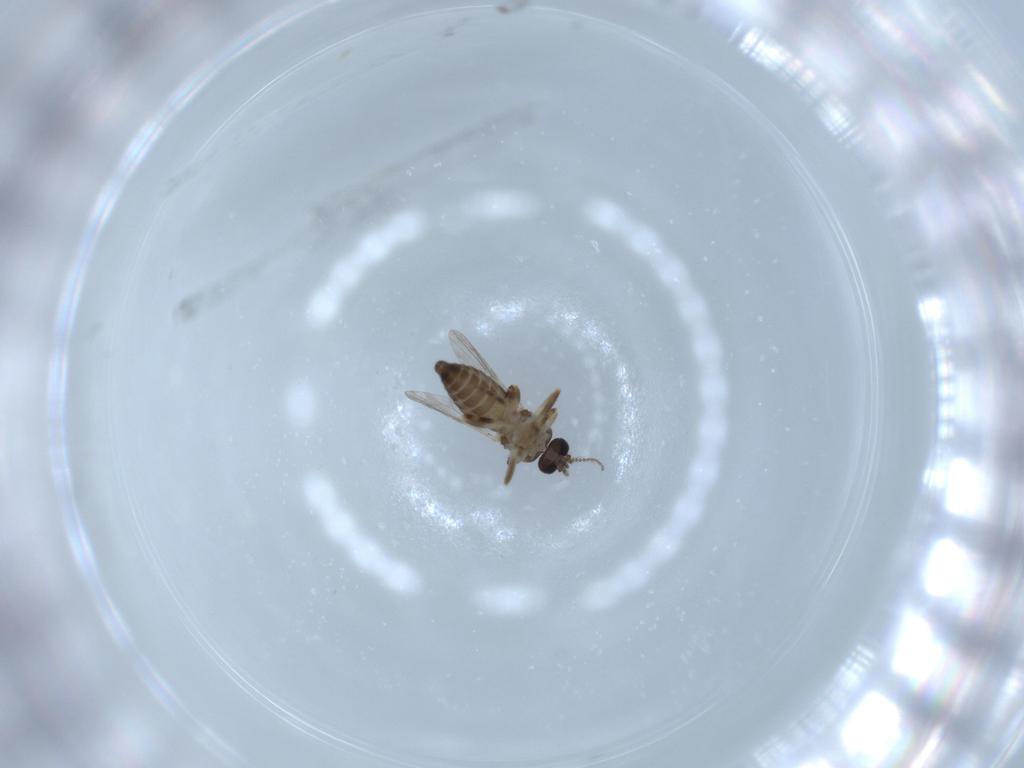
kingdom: Animalia
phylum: Arthropoda
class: Insecta
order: Diptera
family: Ceratopogonidae
